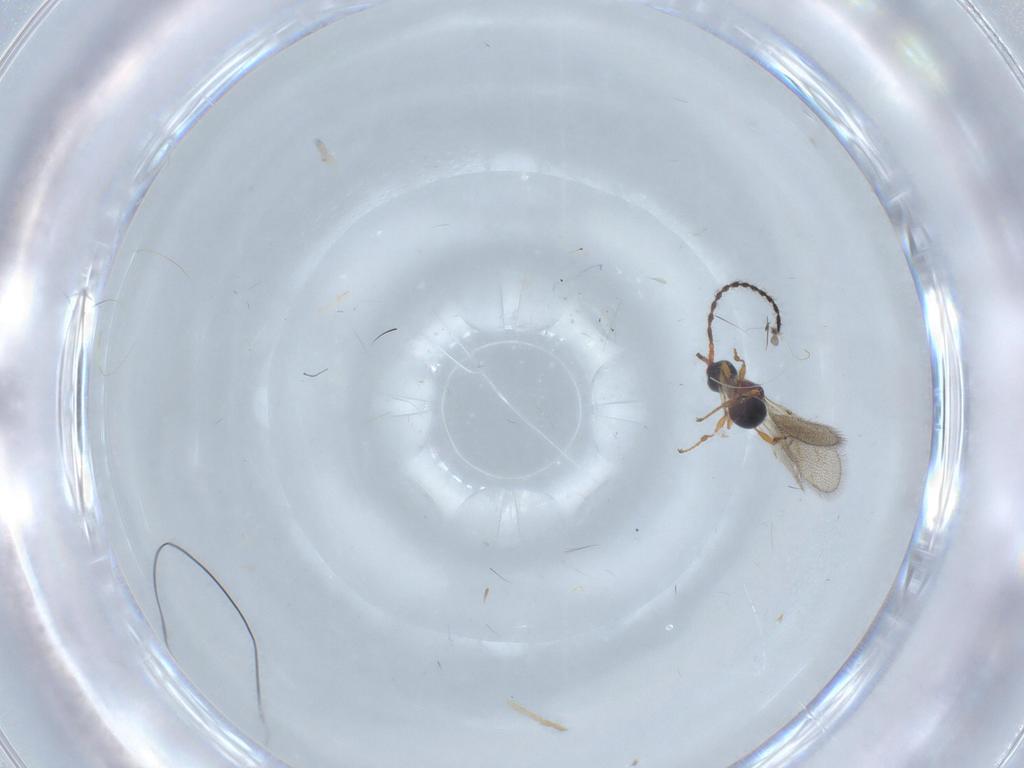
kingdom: Animalia
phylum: Arthropoda
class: Insecta
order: Hymenoptera
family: Diapriidae
